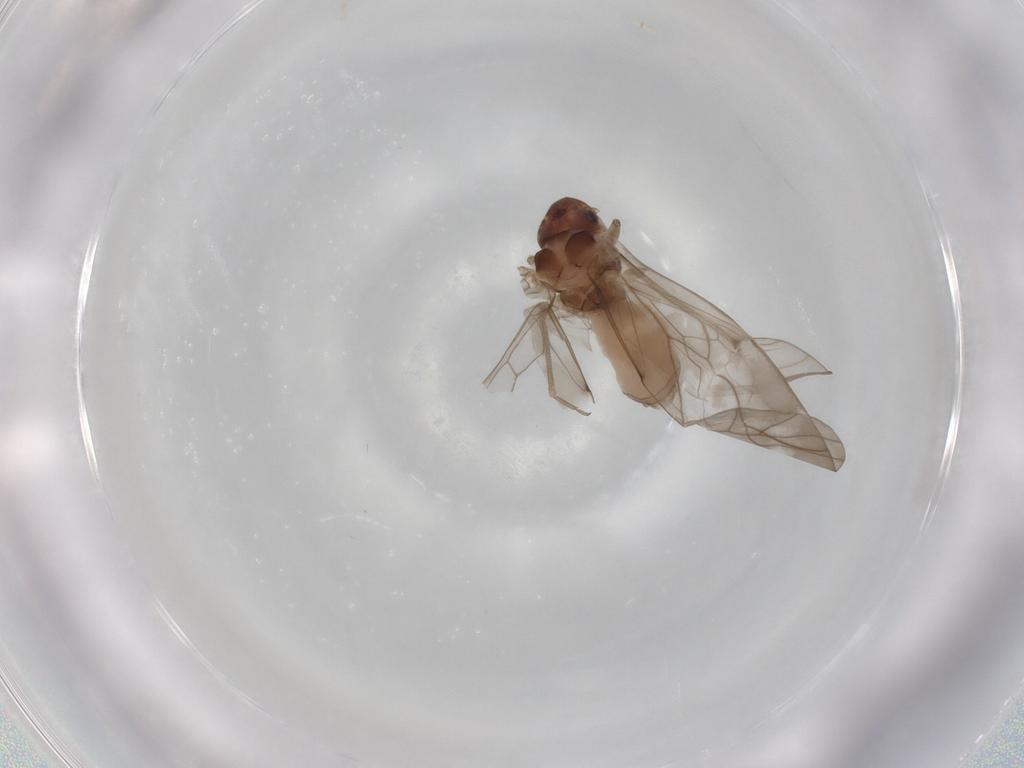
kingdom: Animalia
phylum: Arthropoda
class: Insecta
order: Psocodea
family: Peripsocidae
